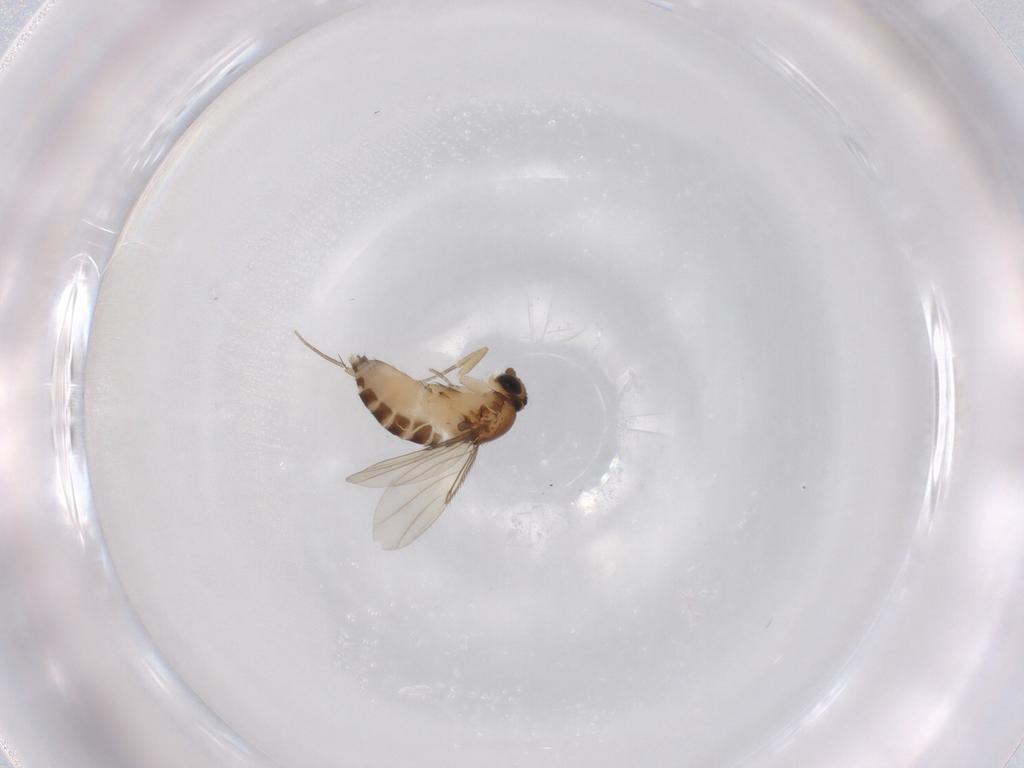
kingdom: Animalia
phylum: Arthropoda
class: Insecta
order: Diptera
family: Phoridae
